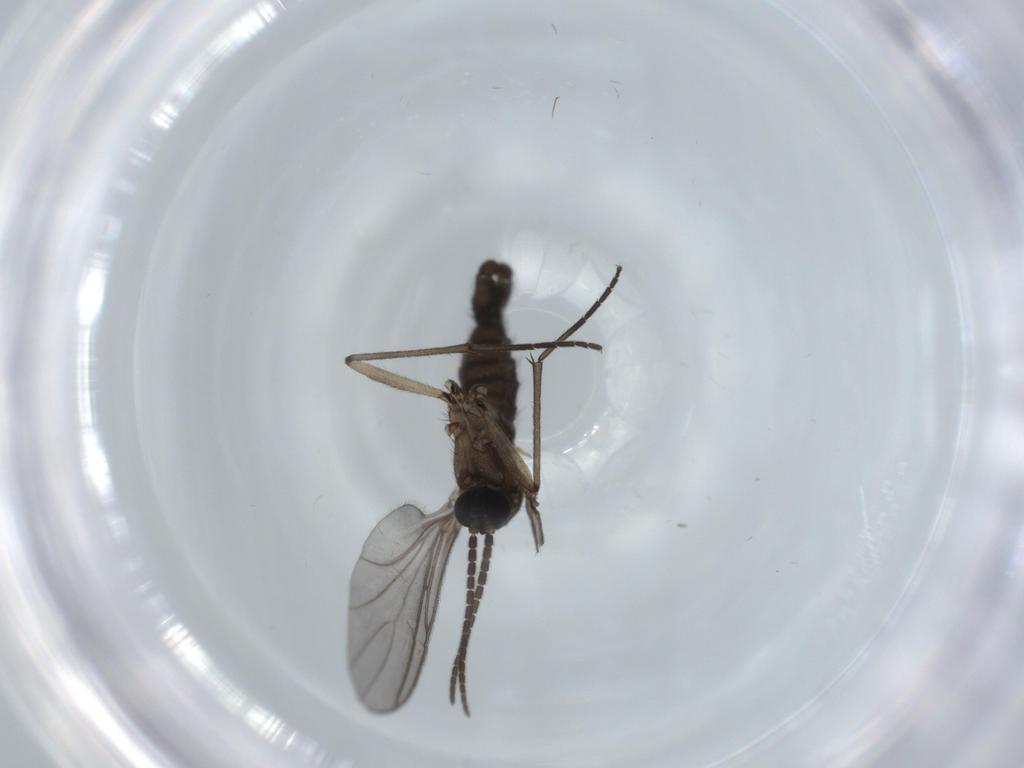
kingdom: Animalia
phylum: Arthropoda
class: Insecta
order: Diptera
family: Sciaridae
